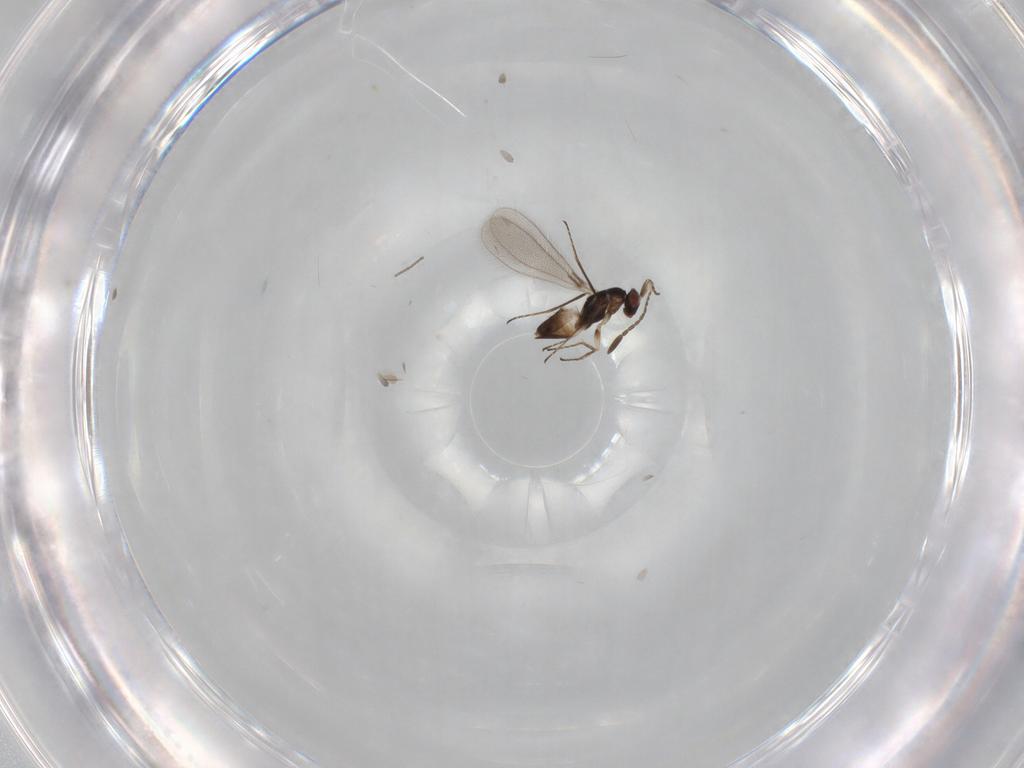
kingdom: Animalia
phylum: Arthropoda
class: Insecta
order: Hymenoptera
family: Mymaridae
